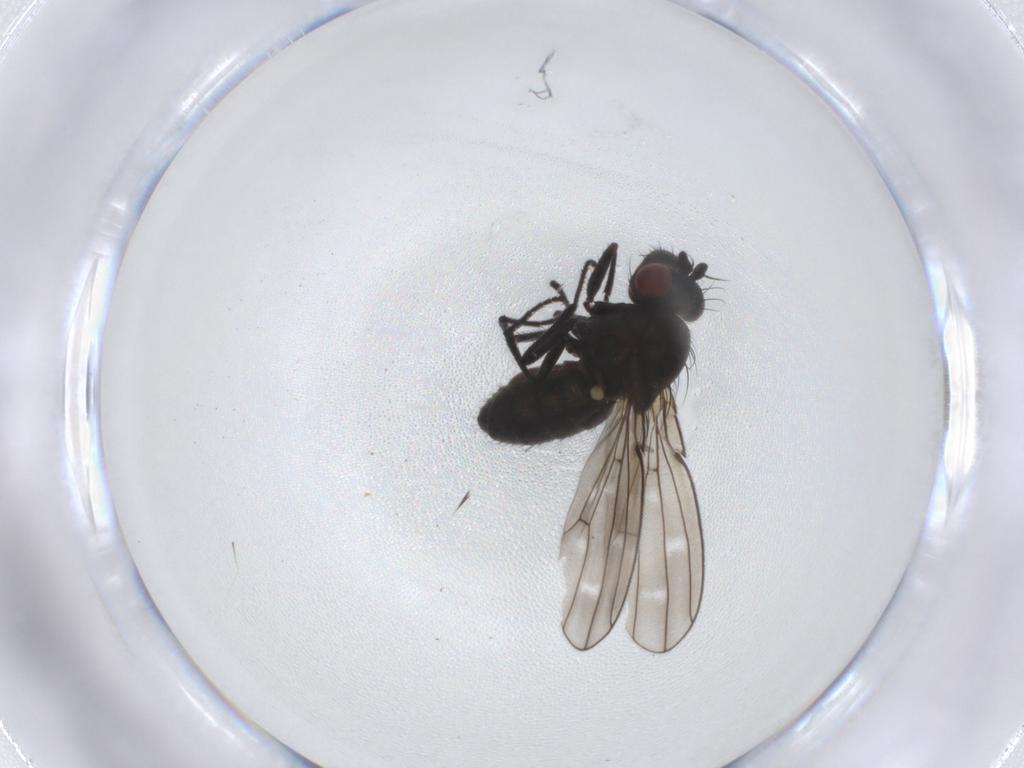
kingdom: Animalia
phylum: Arthropoda
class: Insecta
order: Diptera
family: Ephydridae
